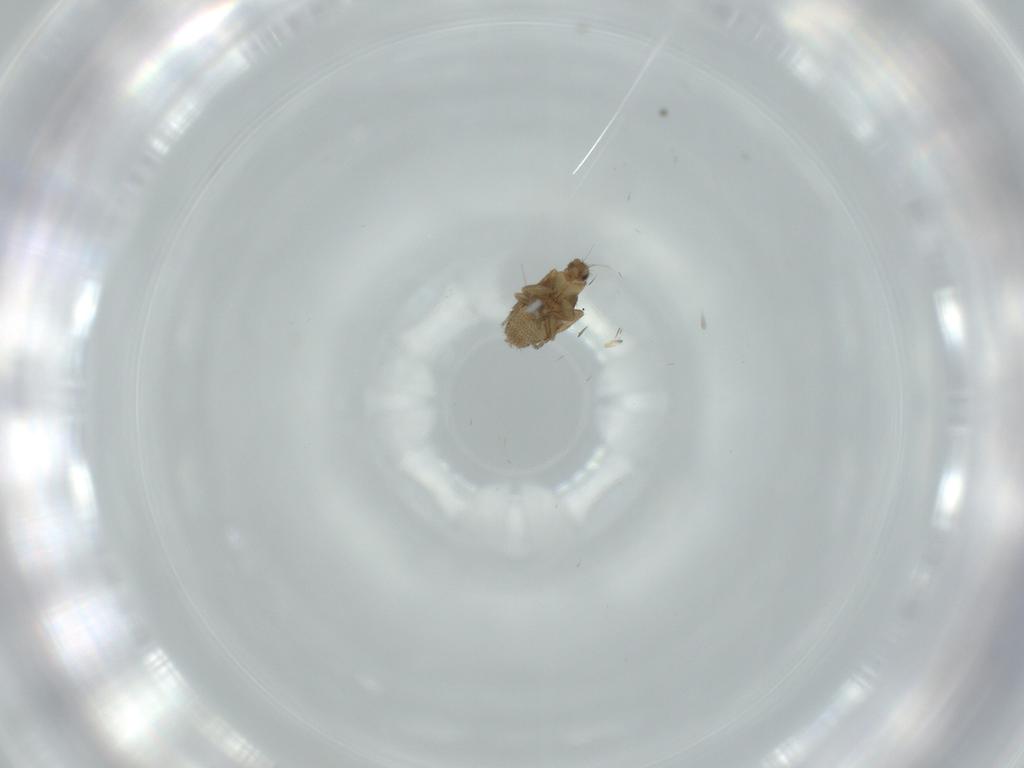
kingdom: Animalia
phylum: Arthropoda
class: Insecta
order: Diptera
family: Phoridae
